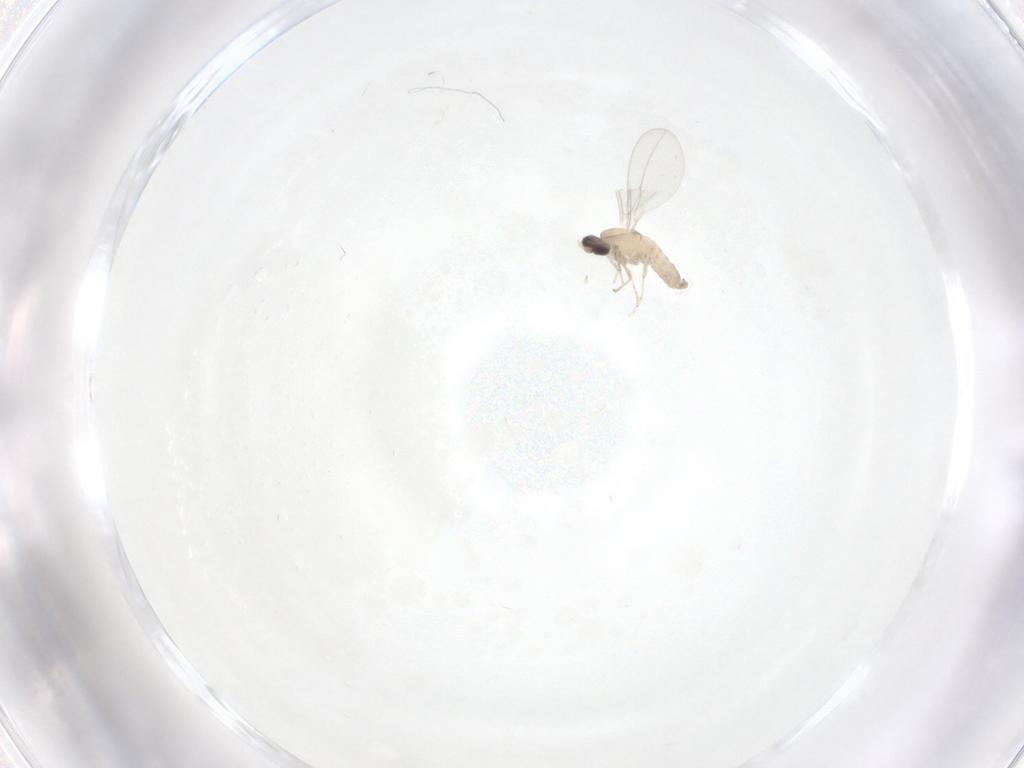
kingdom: Animalia
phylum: Arthropoda
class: Insecta
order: Diptera
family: Cecidomyiidae
